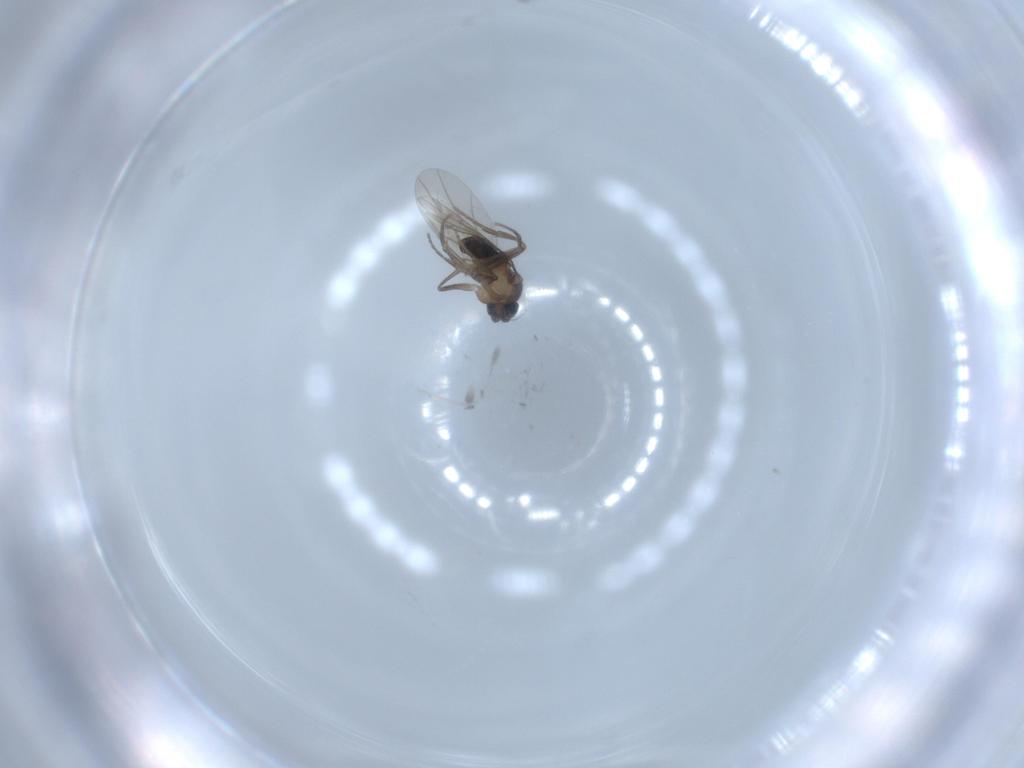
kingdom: Animalia
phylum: Arthropoda
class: Insecta
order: Diptera
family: Phoridae
